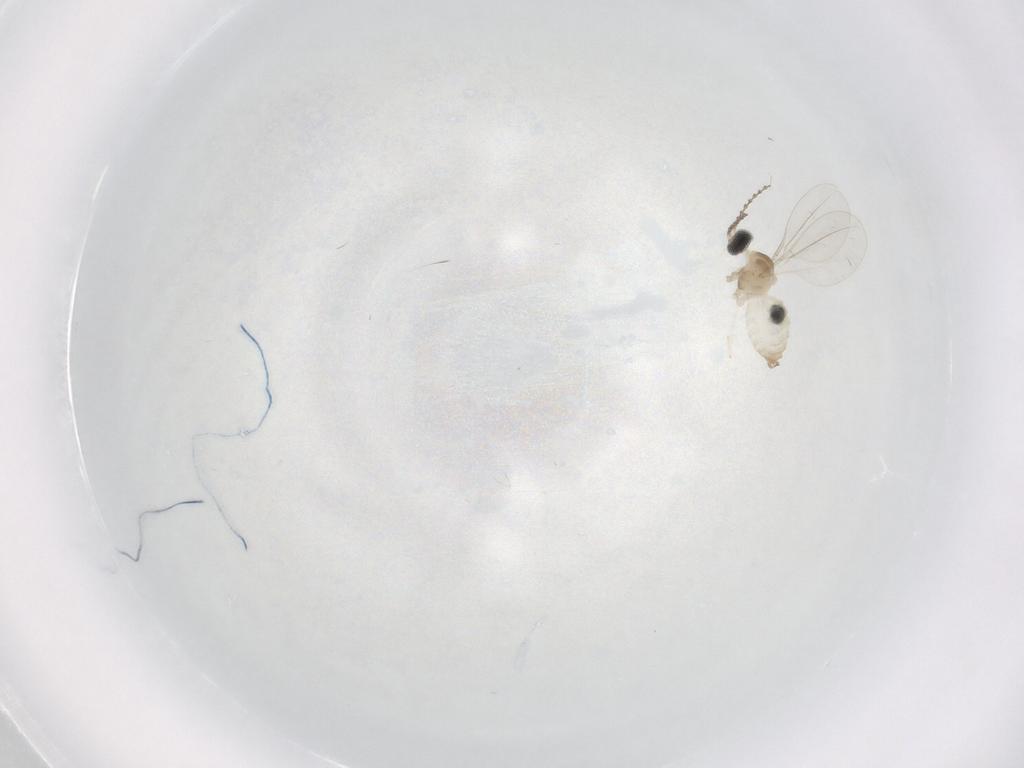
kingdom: Animalia
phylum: Arthropoda
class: Insecta
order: Diptera
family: Cecidomyiidae
